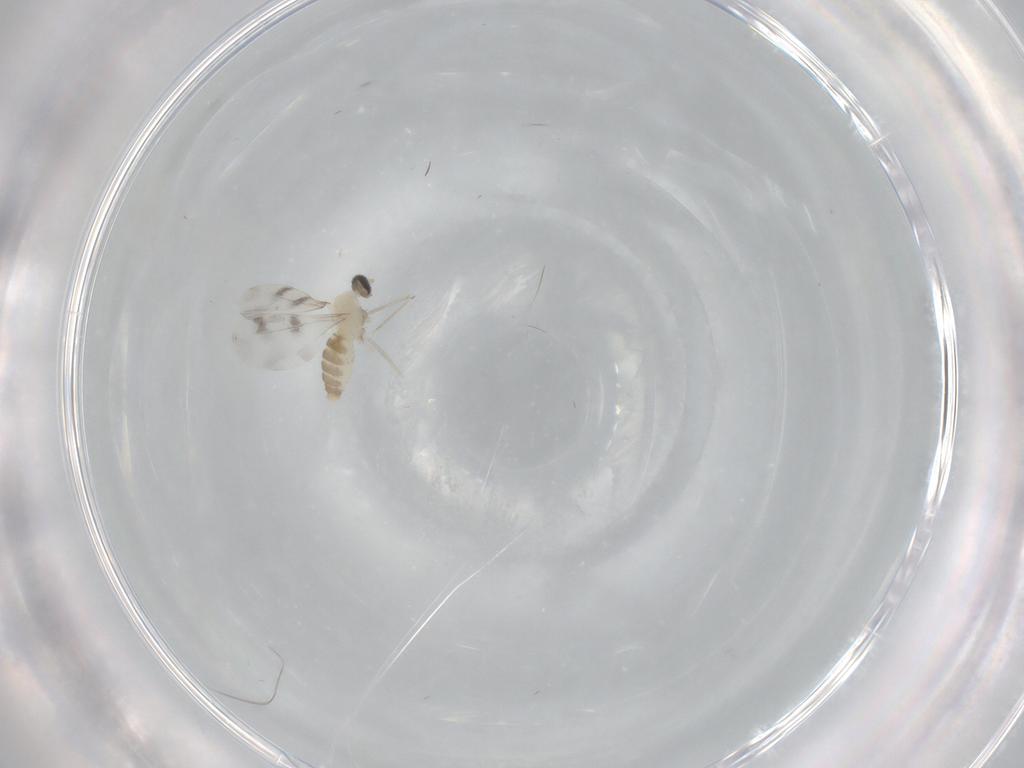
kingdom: Animalia
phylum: Arthropoda
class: Insecta
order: Diptera
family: Cecidomyiidae
